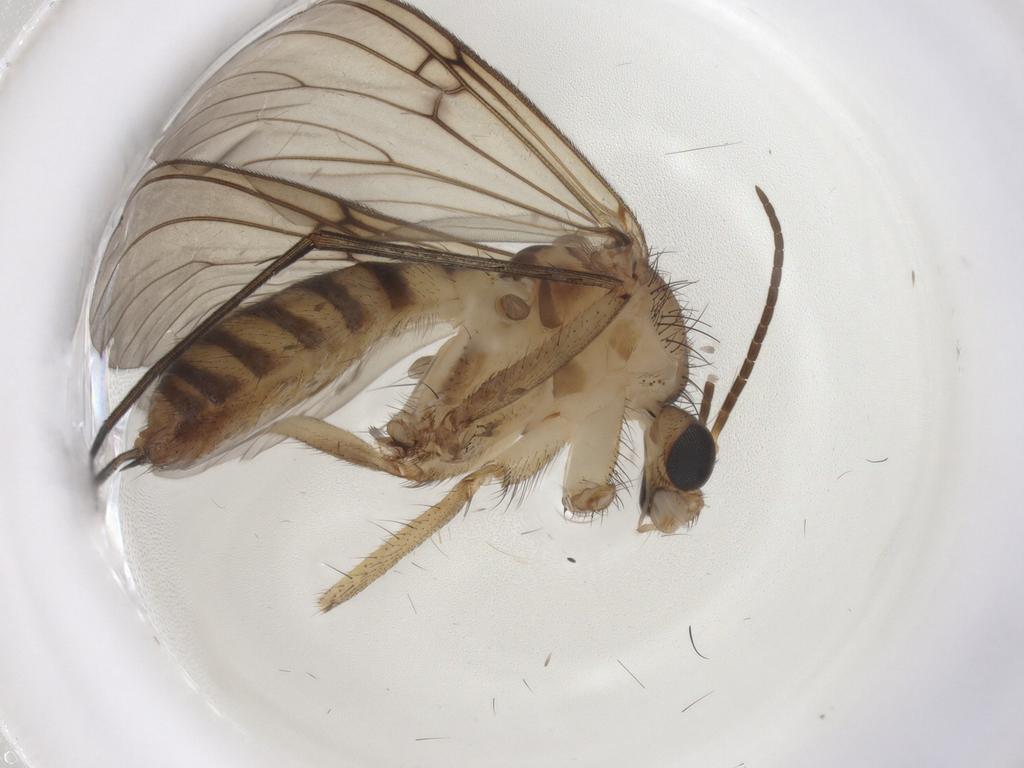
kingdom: Animalia
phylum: Arthropoda
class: Insecta
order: Diptera
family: Mycetophilidae
